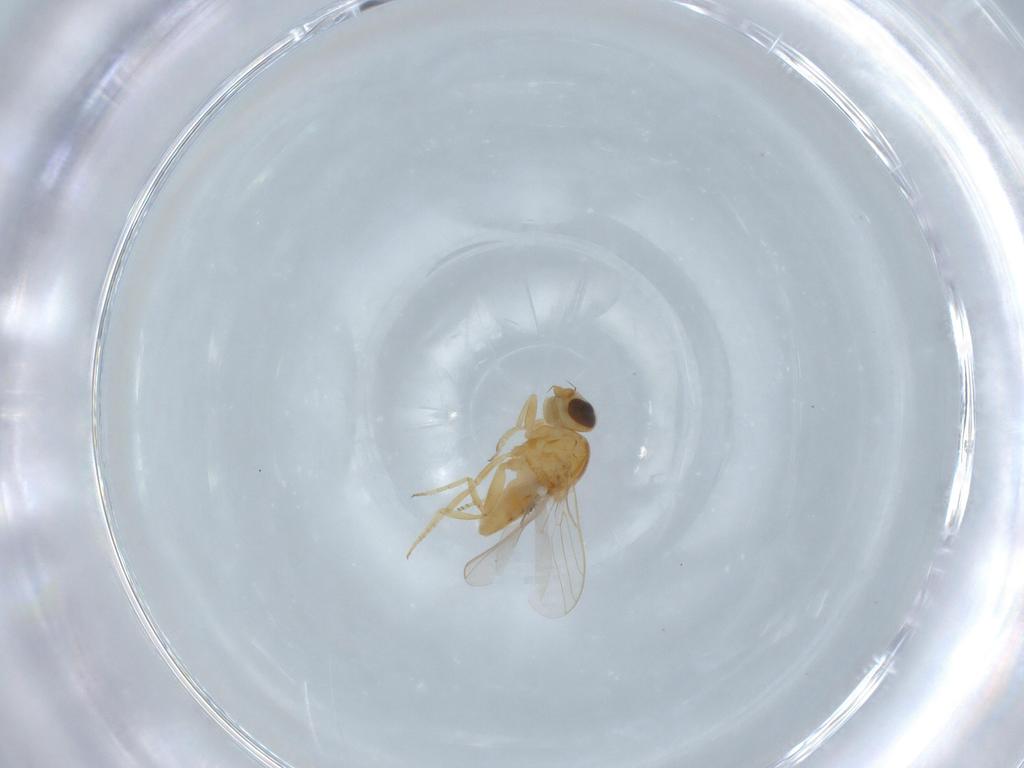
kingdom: Animalia
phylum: Arthropoda
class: Insecta
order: Diptera
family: Chloropidae
